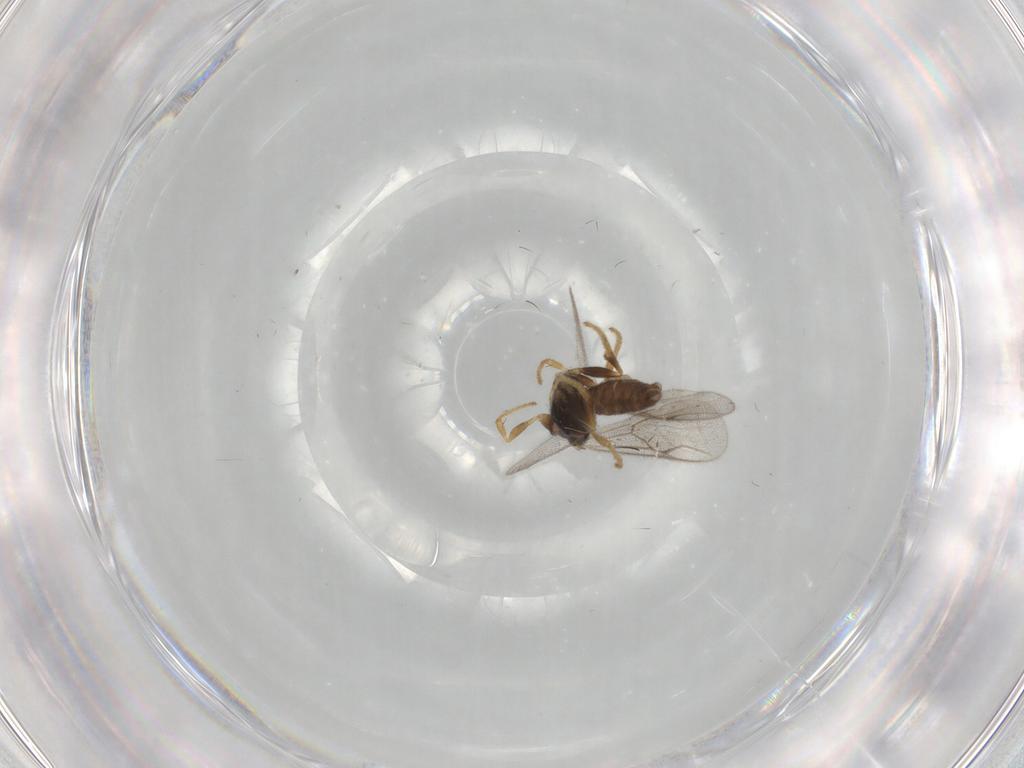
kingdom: Animalia
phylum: Arthropoda
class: Insecta
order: Hymenoptera
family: Dryinidae
